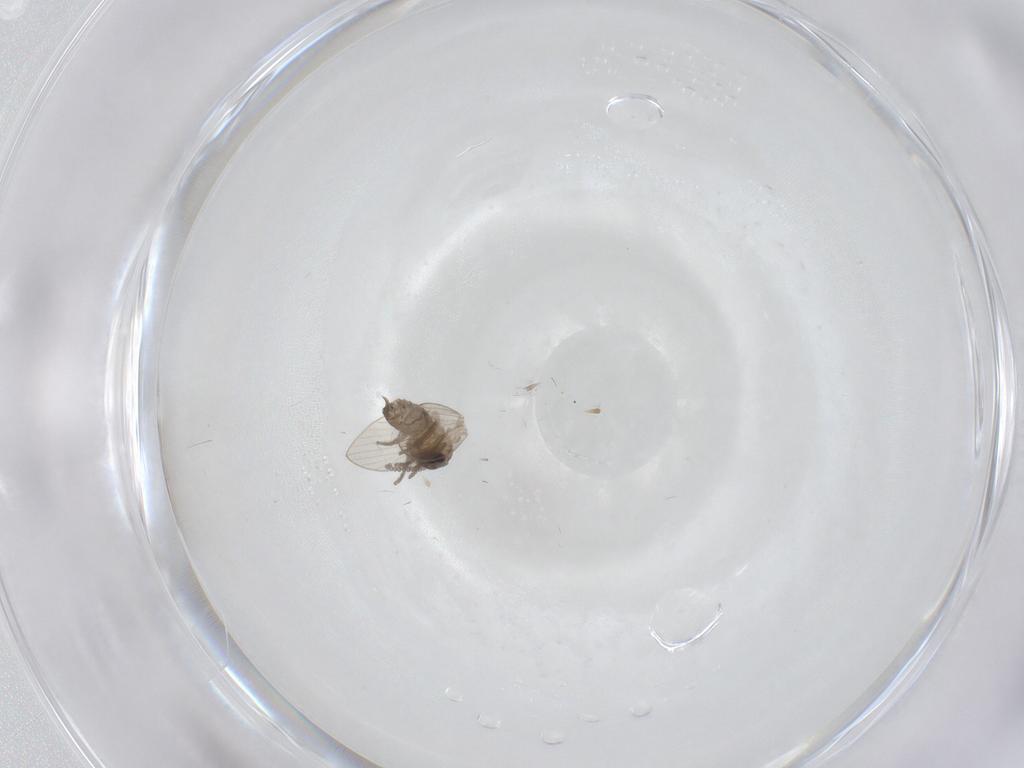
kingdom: Animalia
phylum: Arthropoda
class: Insecta
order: Diptera
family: Psychodidae
